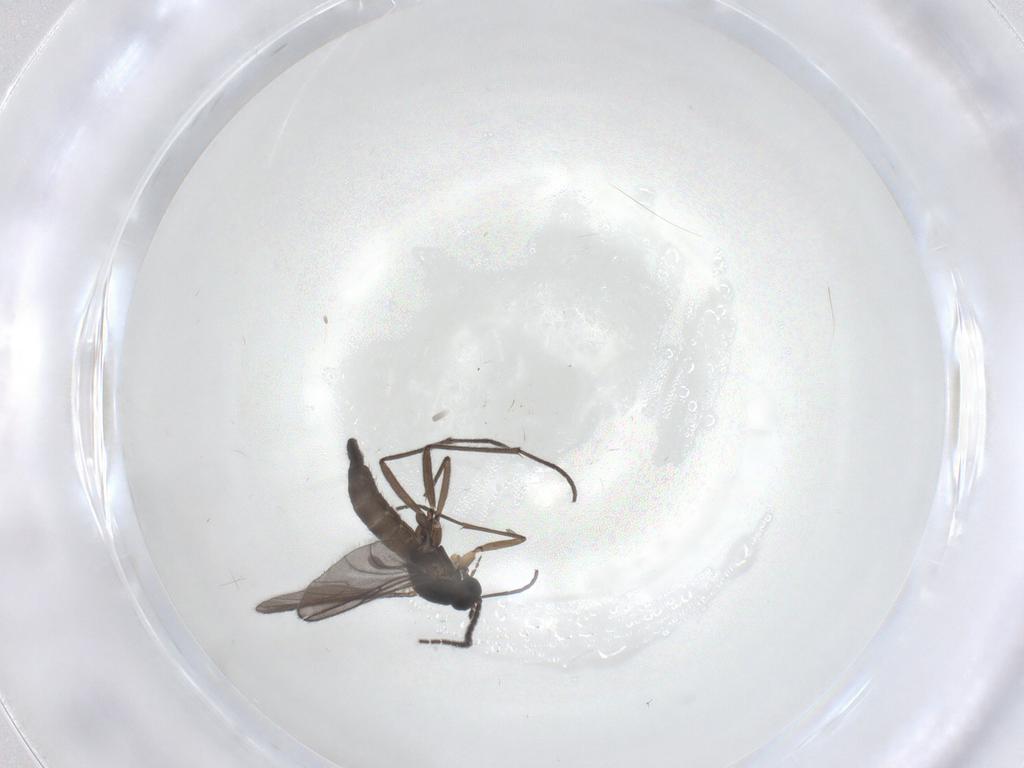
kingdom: Animalia
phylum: Arthropoda
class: Insecta
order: Diptera
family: Sciaridae
